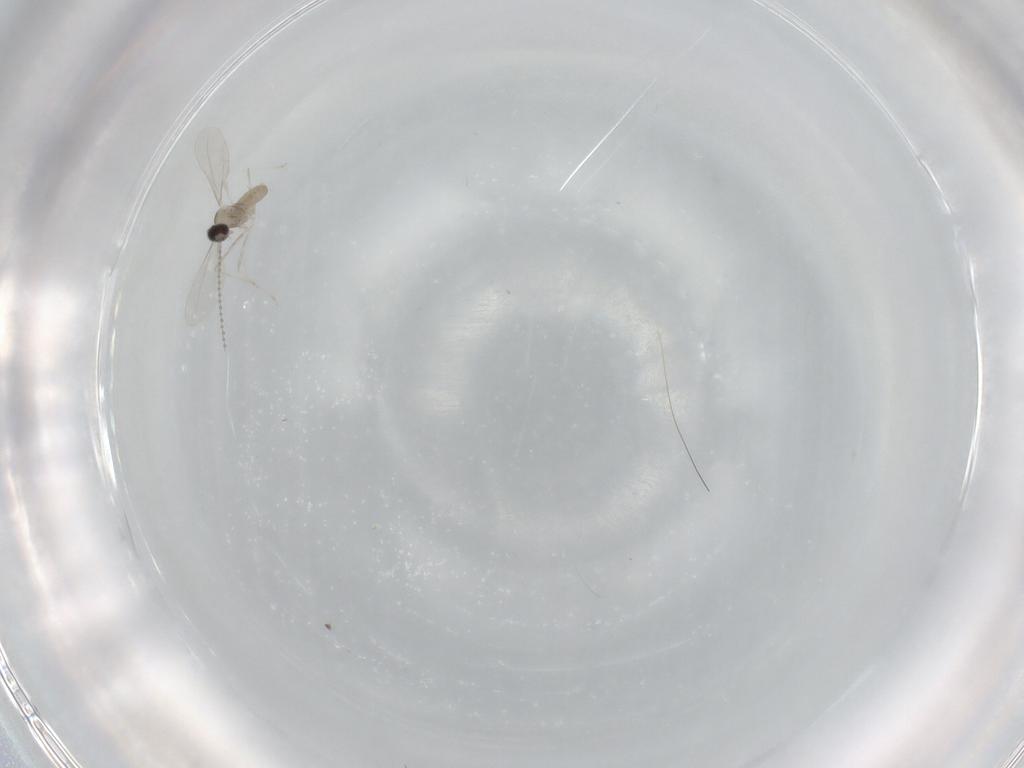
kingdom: Animalia
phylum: Arthropoda
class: Insecta
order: Diptera
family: Cecidomyiidae
